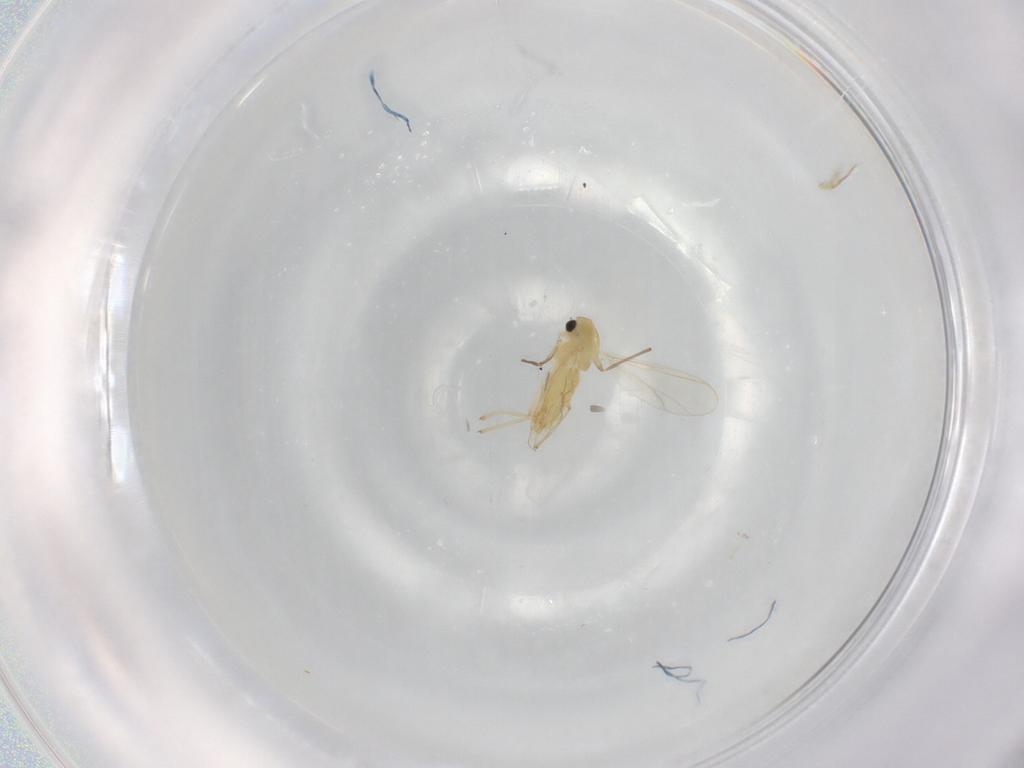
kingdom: Animalia
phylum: Arthropoda
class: Insecta
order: Diptera
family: Chironomidae
